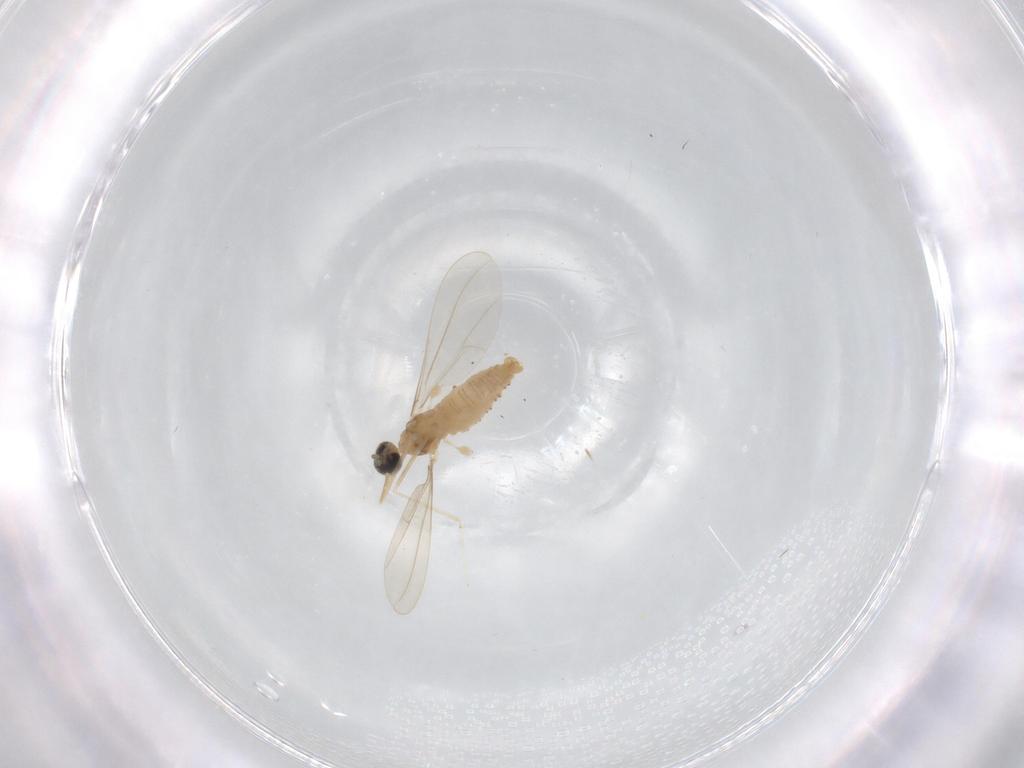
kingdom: Animalia
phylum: Arthropoda
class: Insecta
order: Diptera
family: Cecidomyiidae
